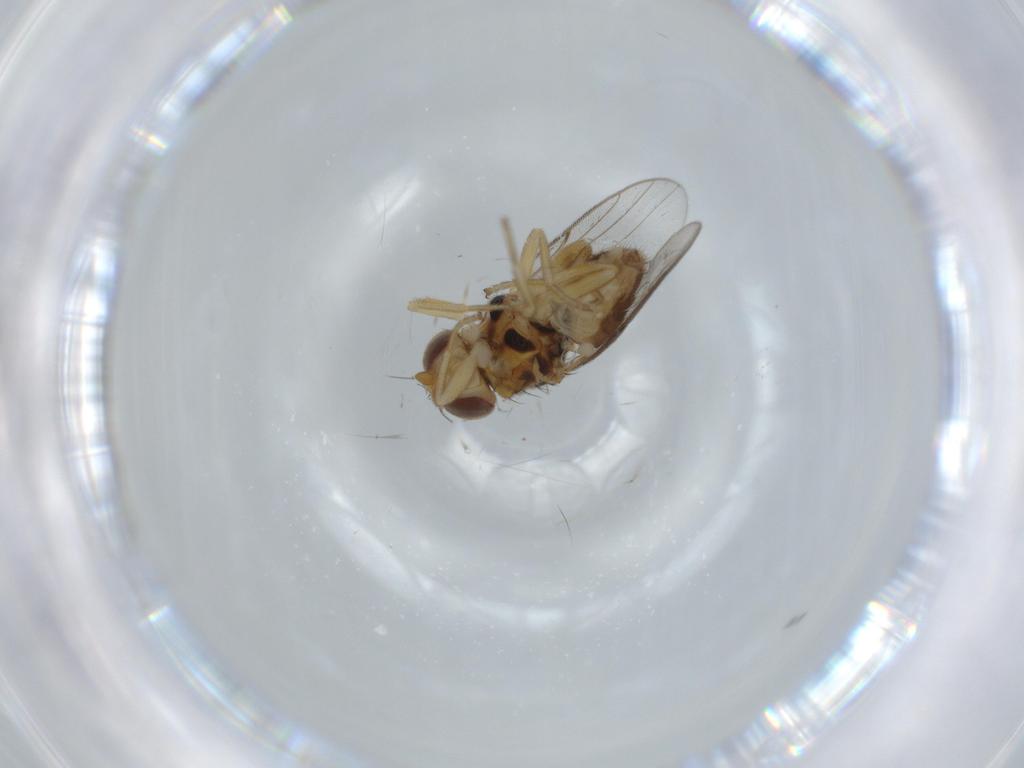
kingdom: Animalia
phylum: Arthropoda
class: Insecta
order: Diptera
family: Chloropidae
